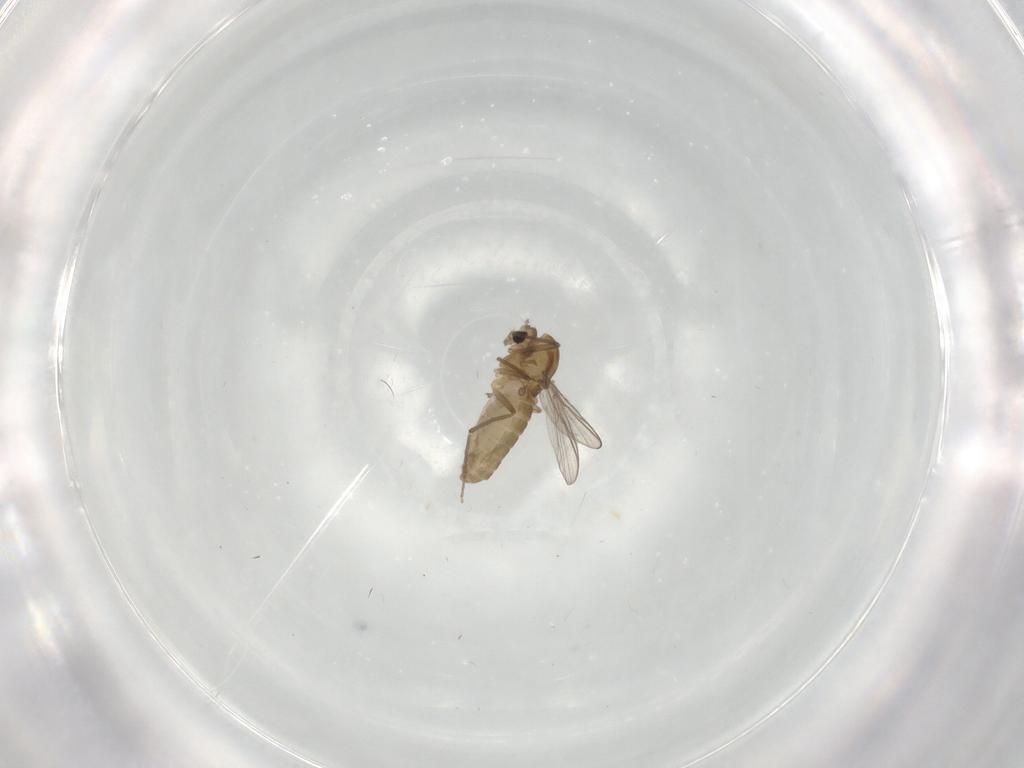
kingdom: Animalia
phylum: Arthropoda
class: Insecta
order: Diptera
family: Chironomidae
